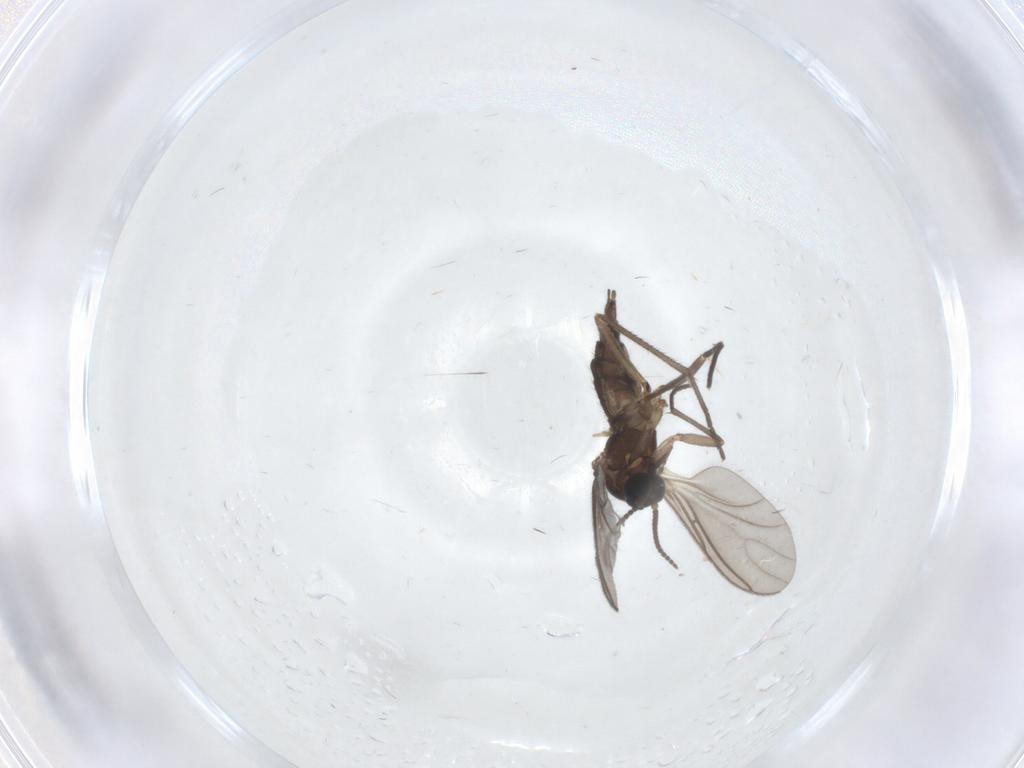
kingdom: Animalia
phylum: Arthropoda
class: Insecta
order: Diptera
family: Sciaridae
